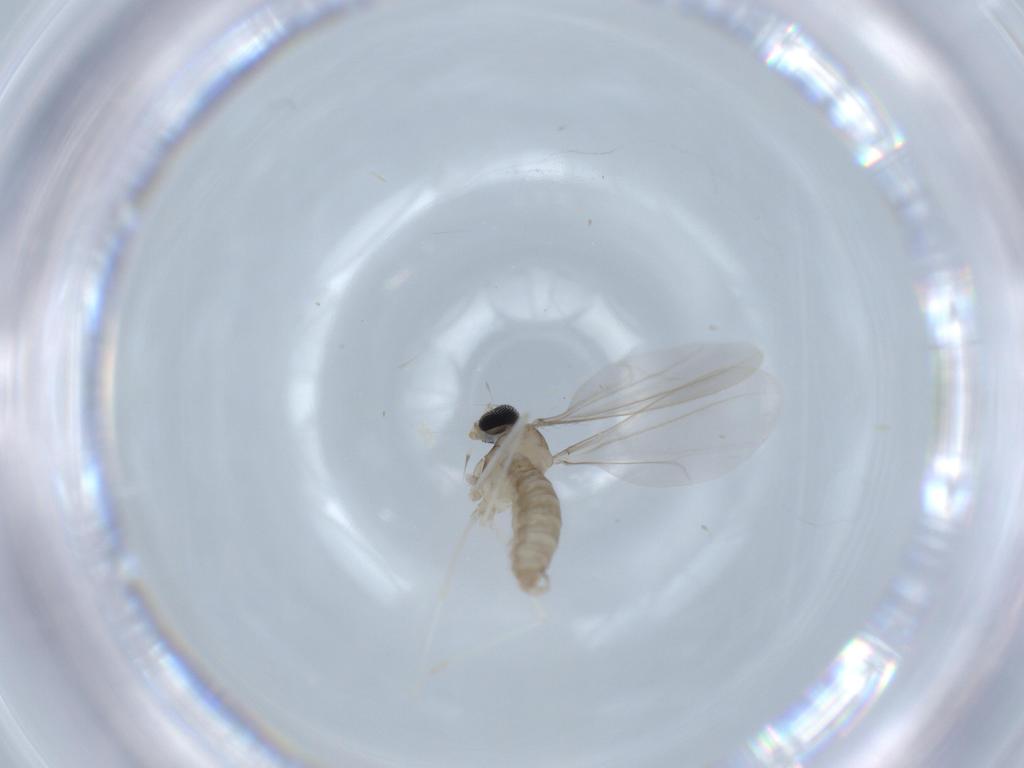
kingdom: Animalia
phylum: Arthropoda
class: Insecta
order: Diptera
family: Cecidomyiidae
